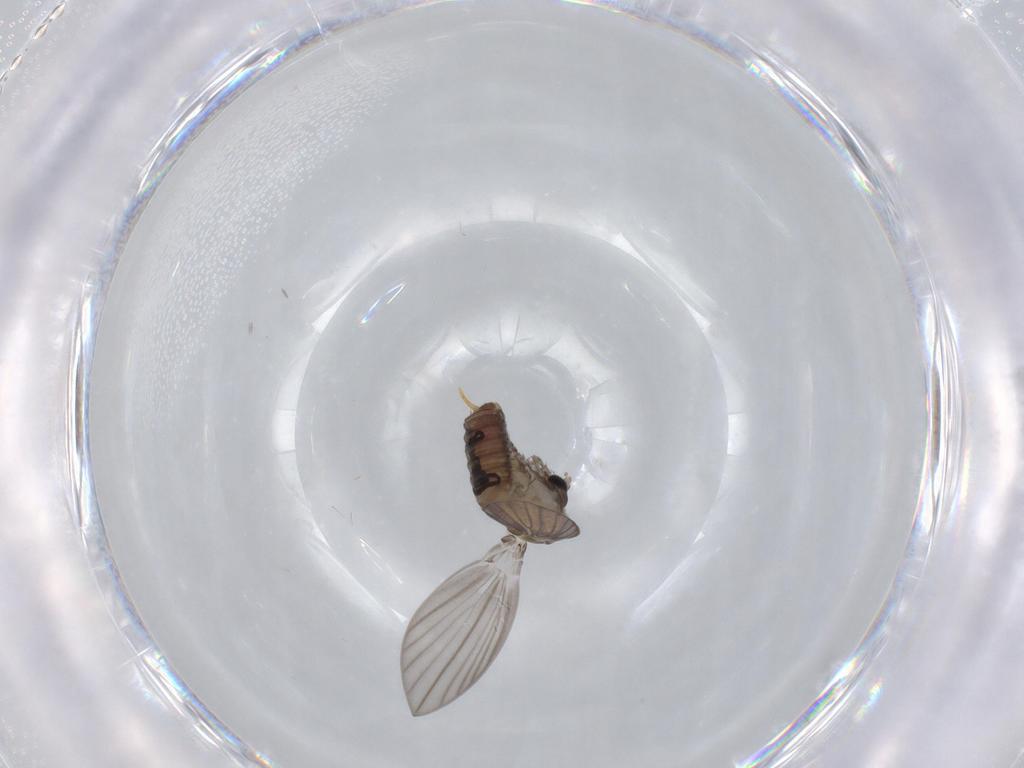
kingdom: Animalia
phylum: Arthropoda
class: Insecta
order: Diptera
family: Psychodidae
